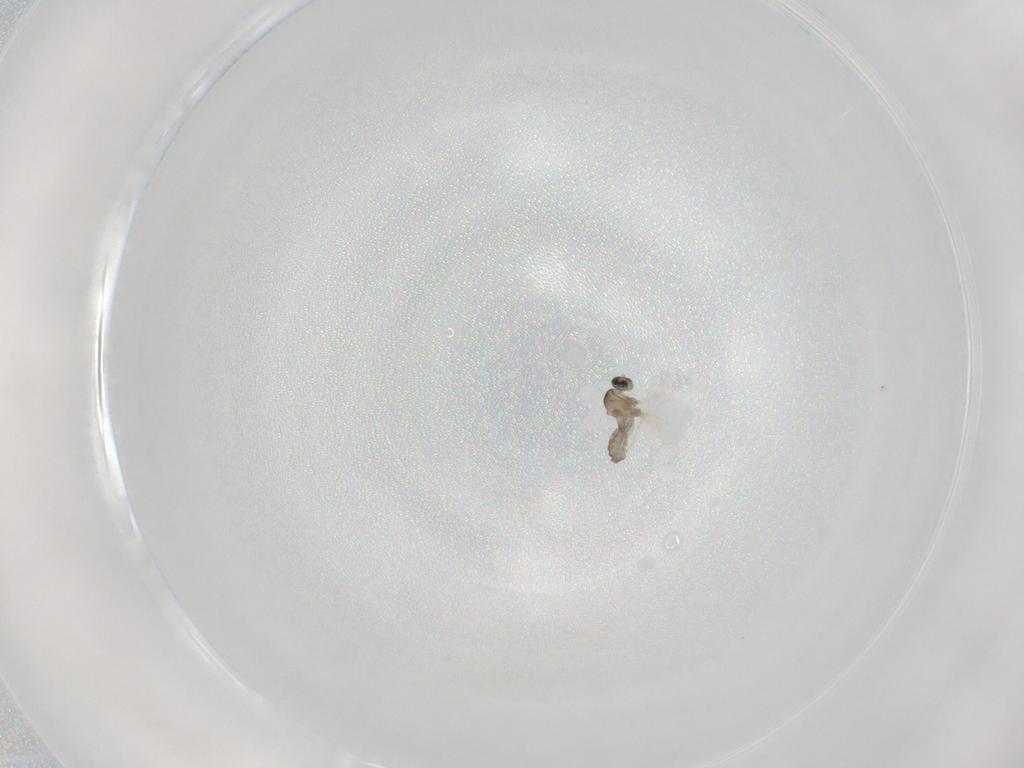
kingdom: Animalia
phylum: Arthropoda
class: Insecta
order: Diptera
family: Cecidomyiidae
